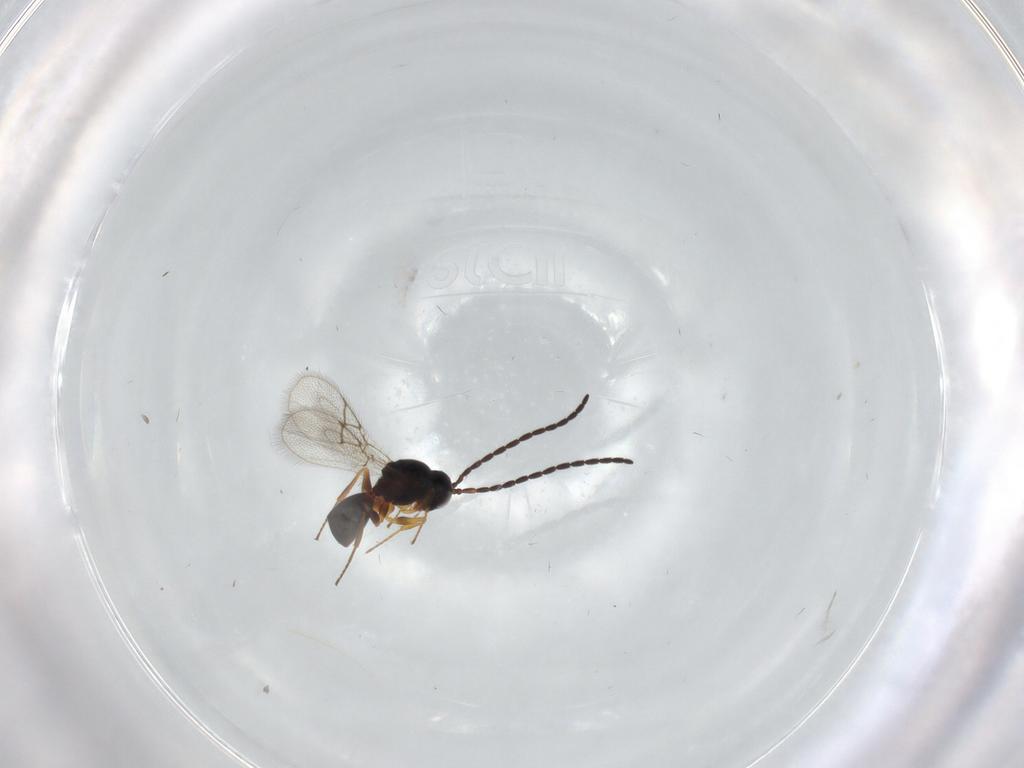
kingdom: Animalia
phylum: Arthropoda
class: Insecta
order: Hymenoptera
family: Figitidae
